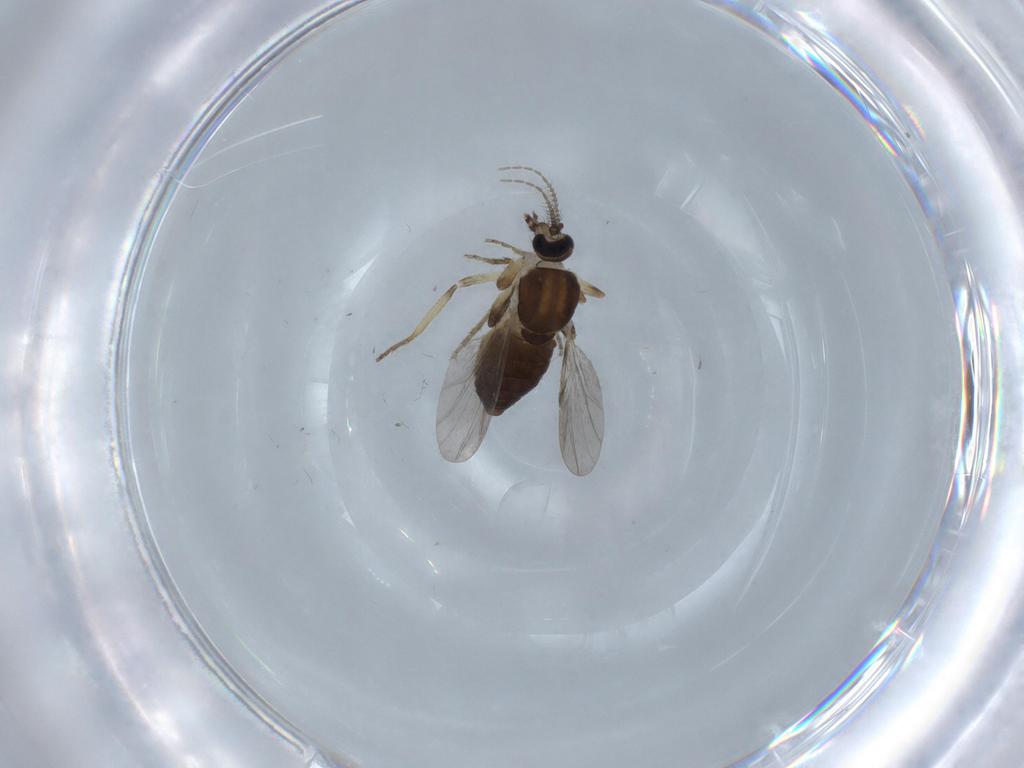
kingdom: Animalia
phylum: Arthropoda
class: Insecta
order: Diptera
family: Ceratopogonidae
